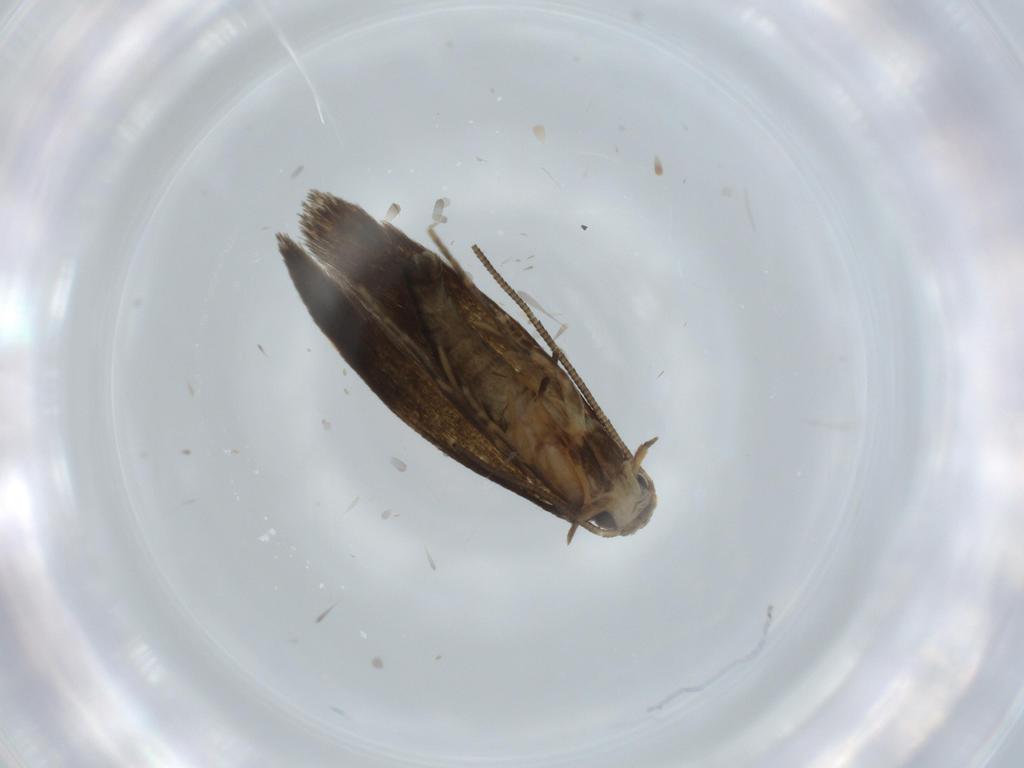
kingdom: Animalia
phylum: Arthropoda
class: Insecta
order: Lepidoptera
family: Tineidae
